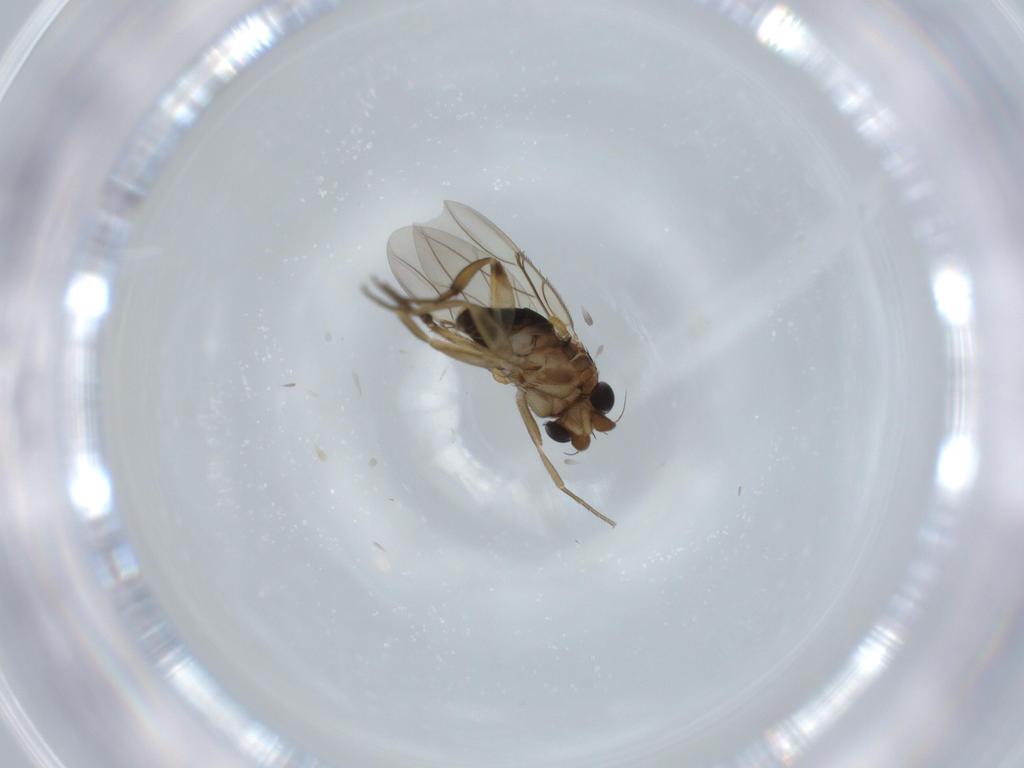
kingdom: Animalia
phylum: Arthropoda
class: Insecta
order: Diptera
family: Phoridae
